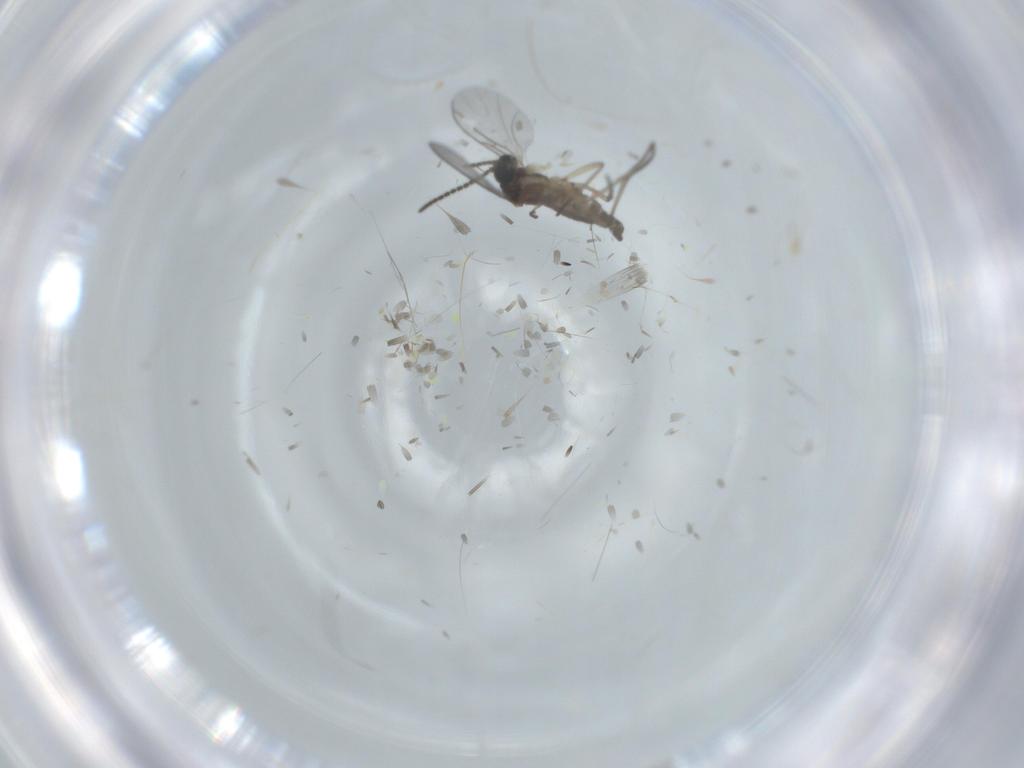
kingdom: Animalia
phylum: Arthropoda
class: Insecta
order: Diptera
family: Sciaridae
